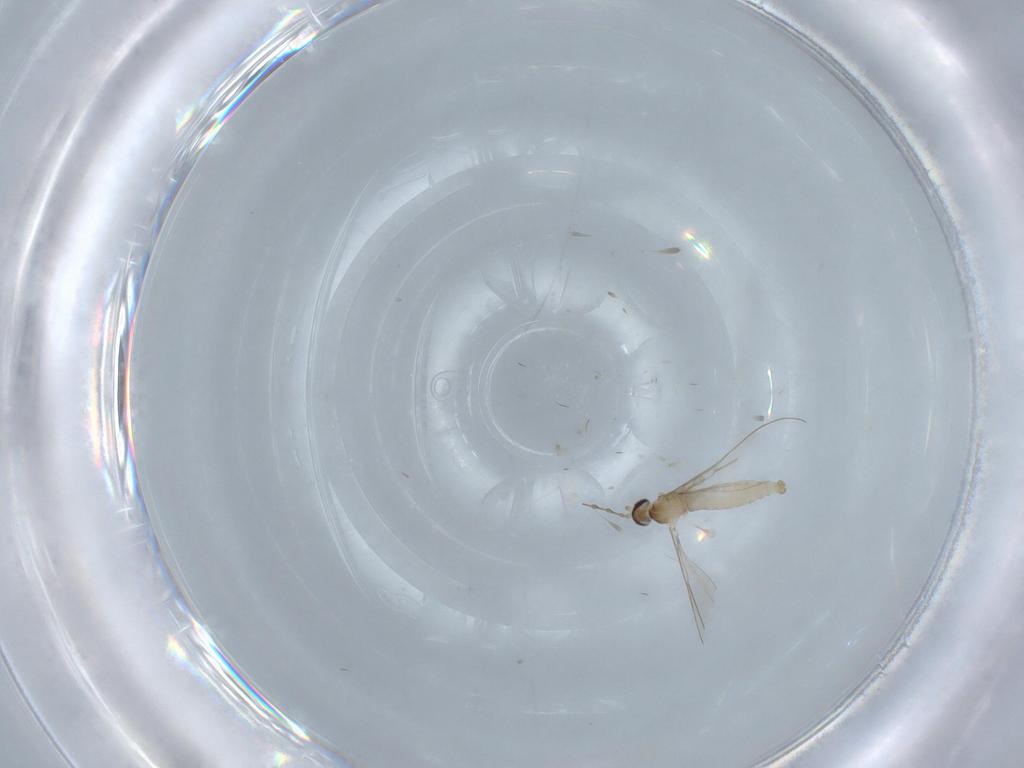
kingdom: Animalia
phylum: Arthropoda
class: Insecta
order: Diptera
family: Cecidomyiidae
